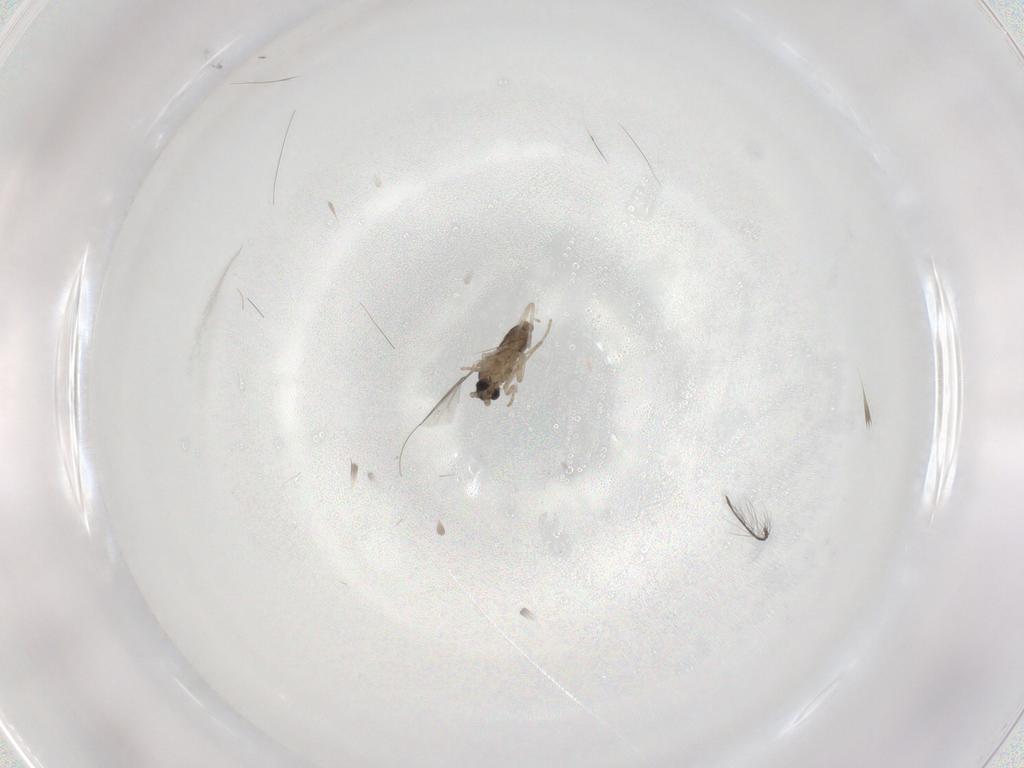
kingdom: Animalia
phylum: Arthropoda
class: Insecta
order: Diptera
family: Cecidomyiidae
